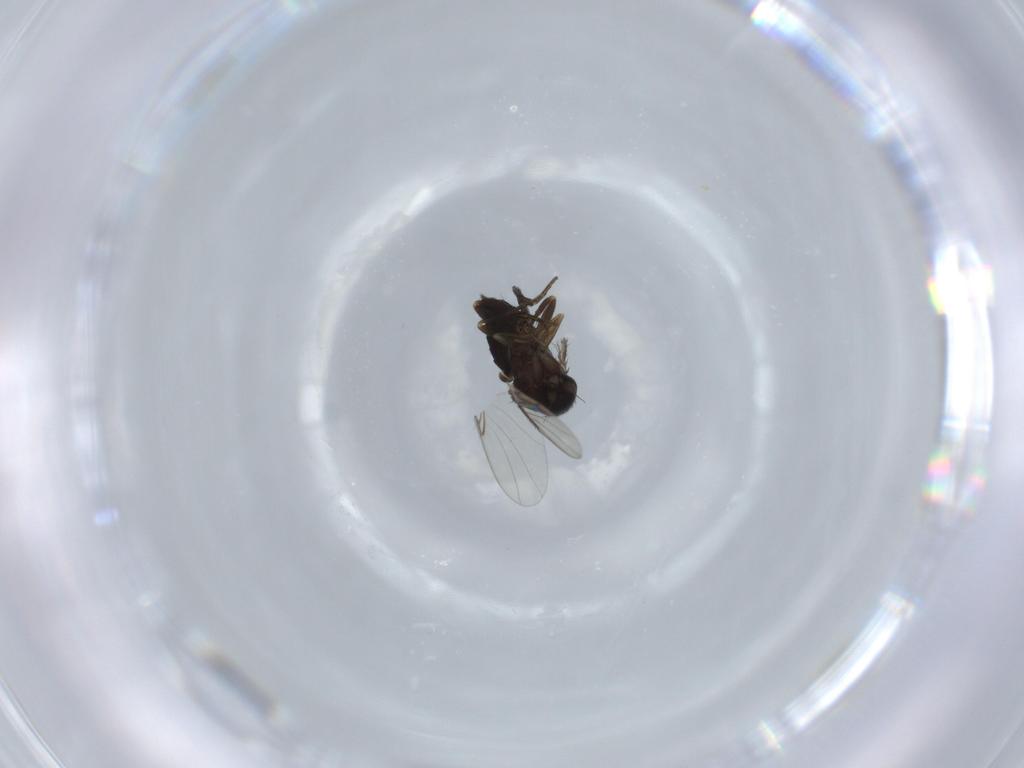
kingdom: Animalia
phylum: Arthropoda
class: Insecta
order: Diptera
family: Phoridae
